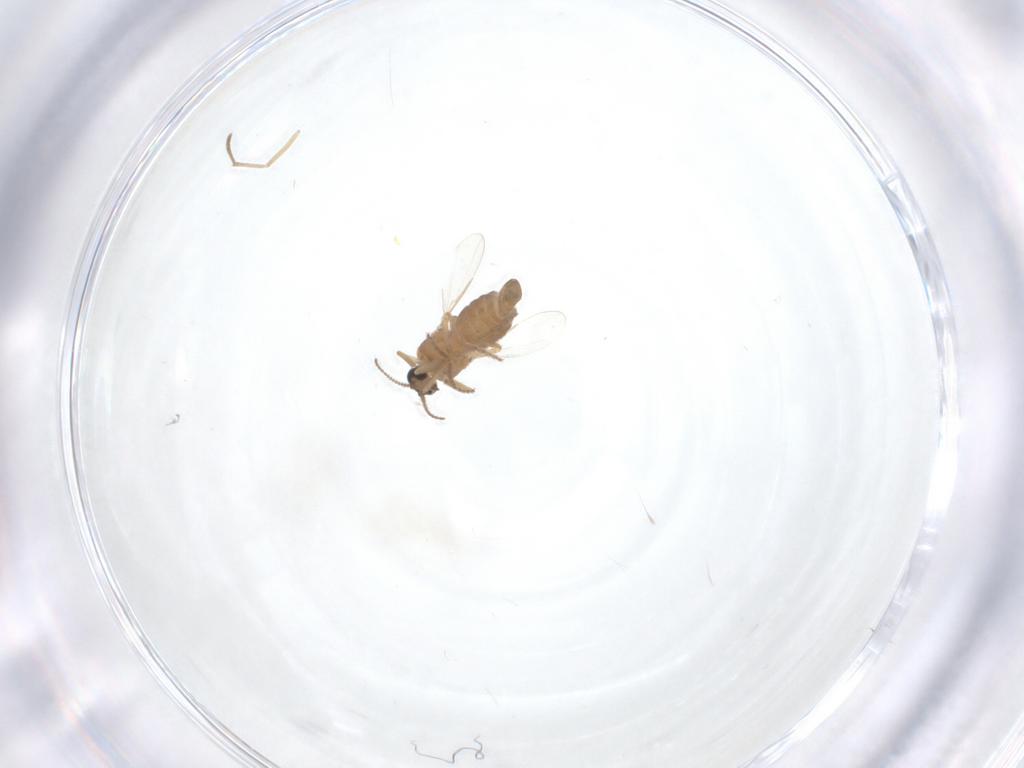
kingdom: Animalia
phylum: Arthropoda
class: Insecta
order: Diptera
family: Ceratopogonidae
